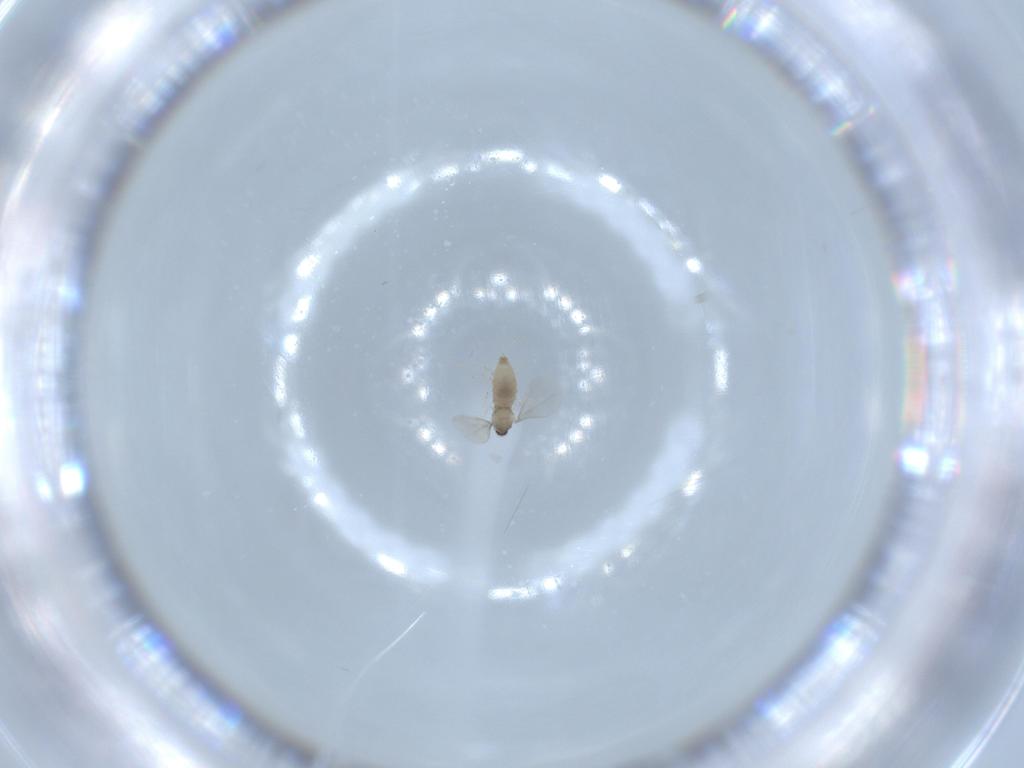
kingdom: Animalia
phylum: Arthropoda
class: Insecta
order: Diptera
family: Cecidomyiidae
